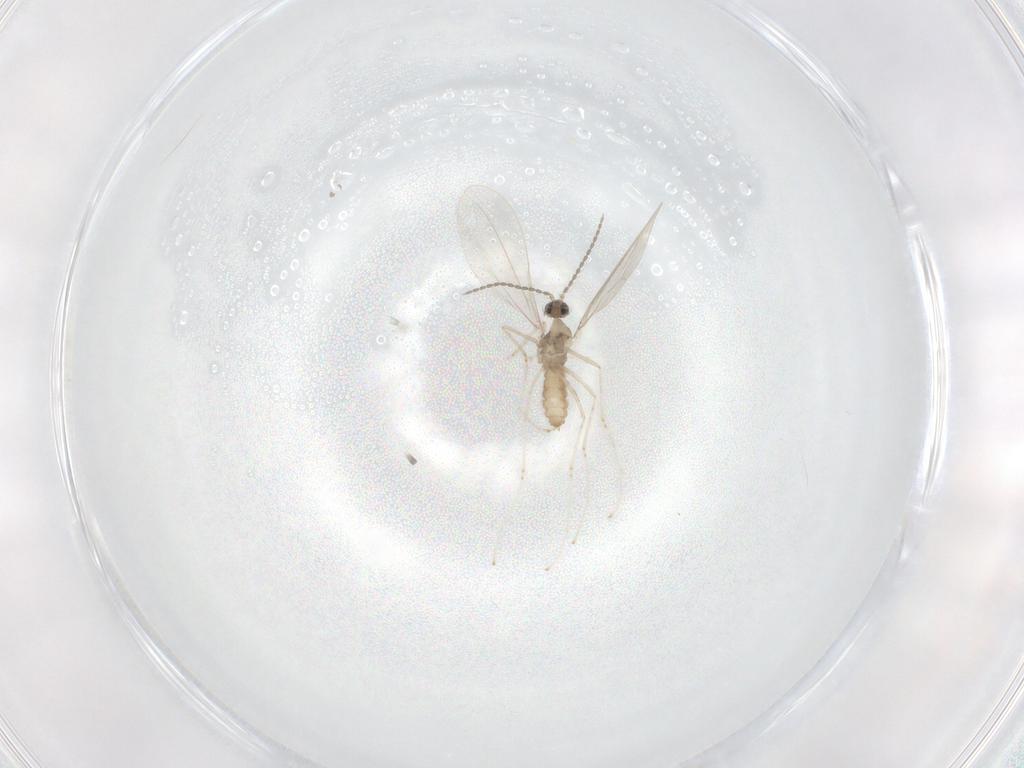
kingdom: Animalia
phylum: Arthropoda
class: Insecta
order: Diptera
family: Cecidomyiidae
